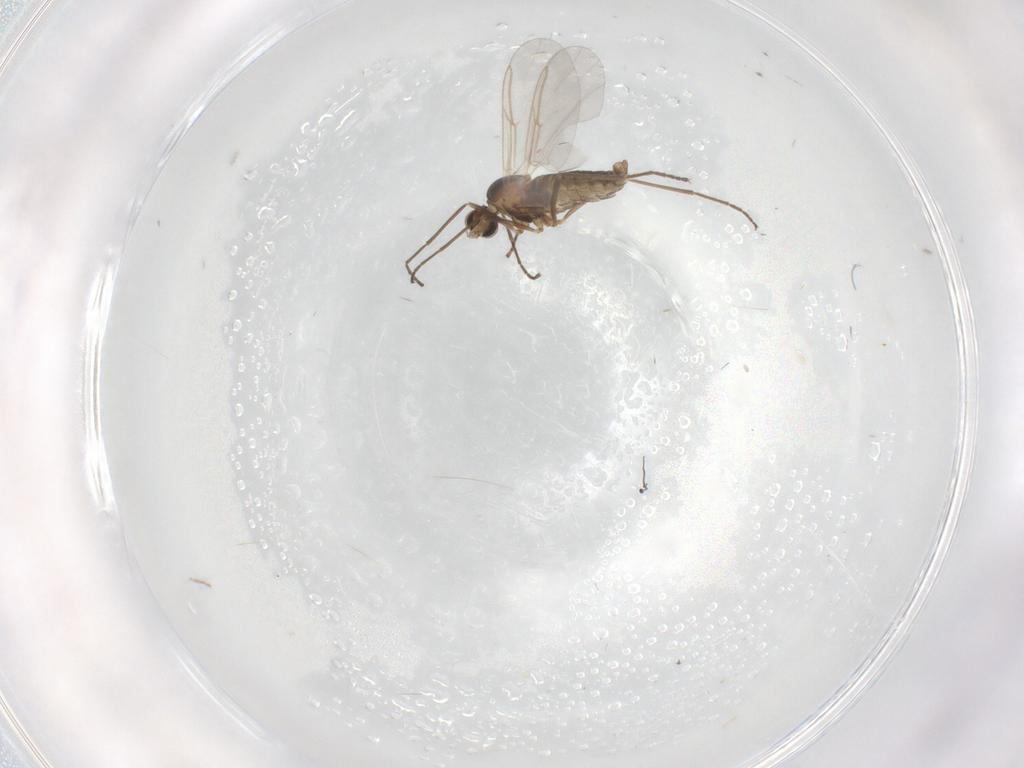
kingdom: Animalia
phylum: Arthropoda
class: Insecta
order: Diptera
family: Cecidomyiidae
